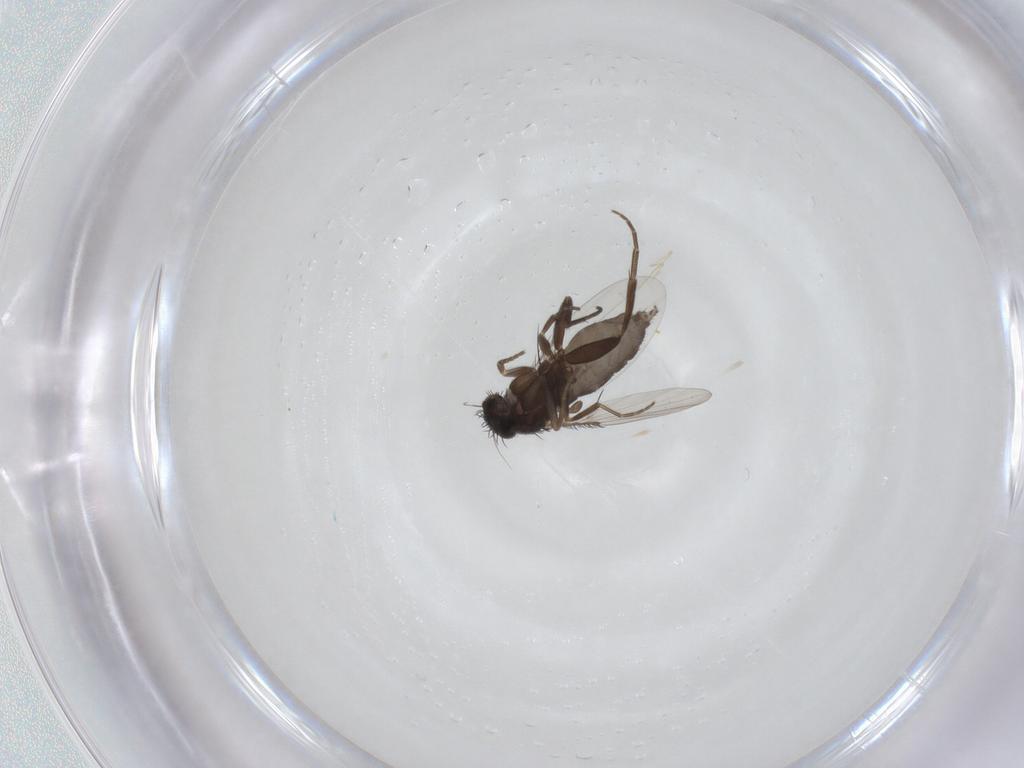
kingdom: Animalia
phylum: Arthropoda
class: Insecta
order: Diptera
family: Phoridae
